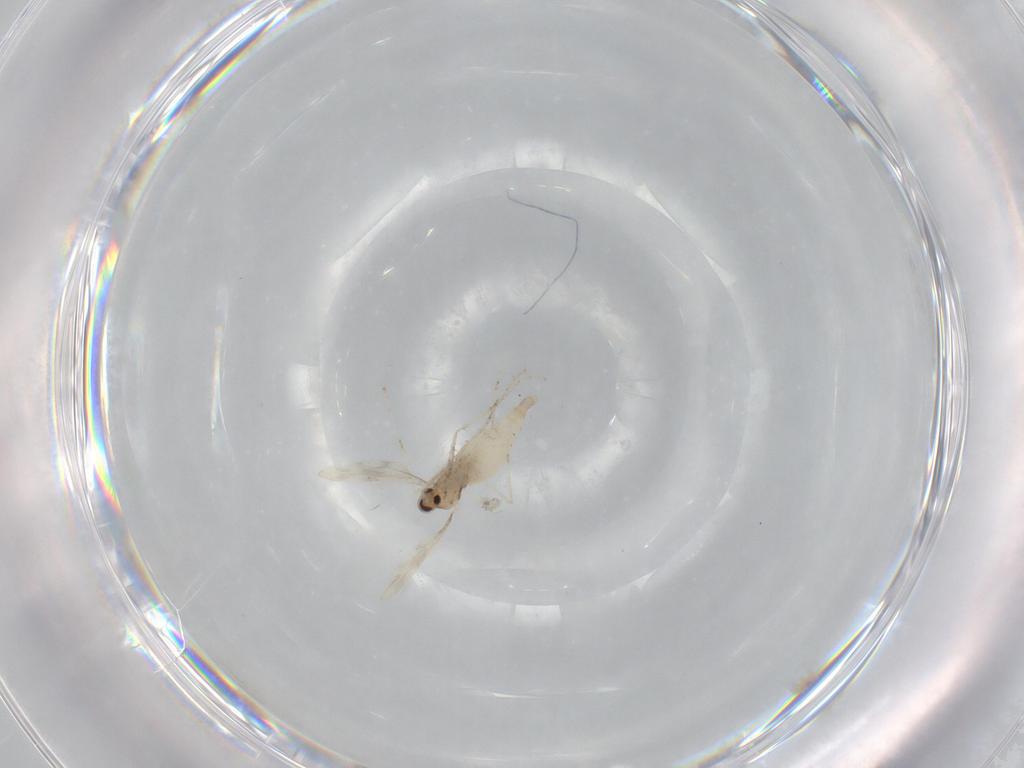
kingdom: Animalia
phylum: Arthropoda
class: Insecta
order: Diptera
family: Cecidomyiidae
